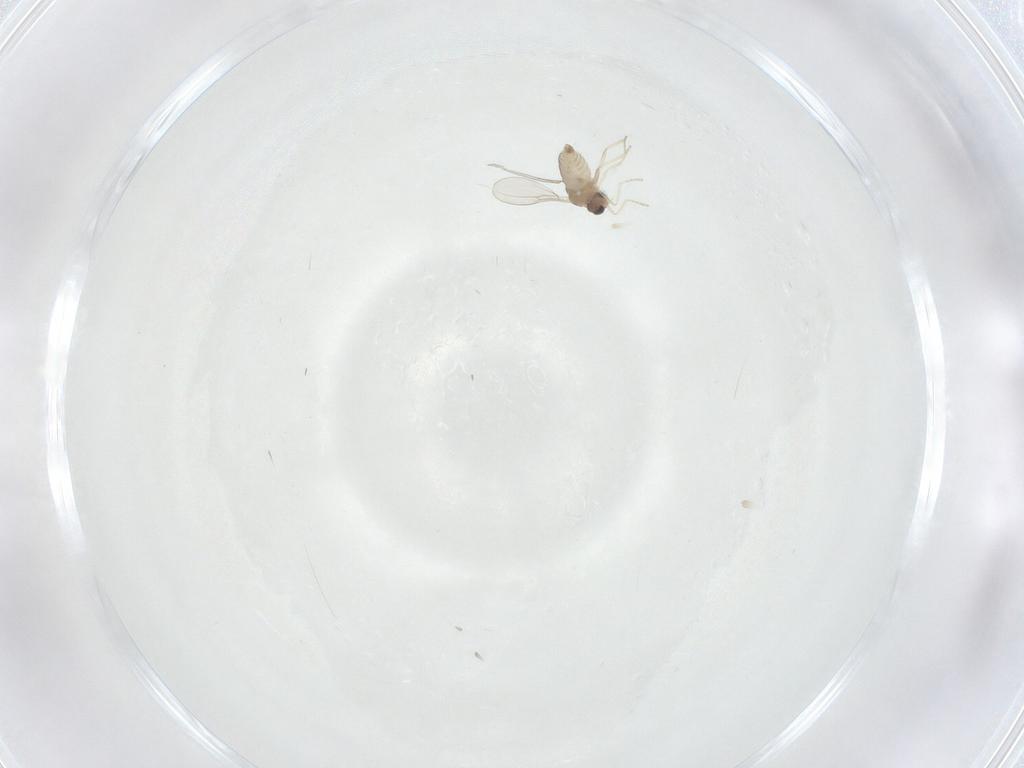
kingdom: Animalia
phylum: Arthropoda
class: Insecta
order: Diptera
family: Cecidomyiidae
